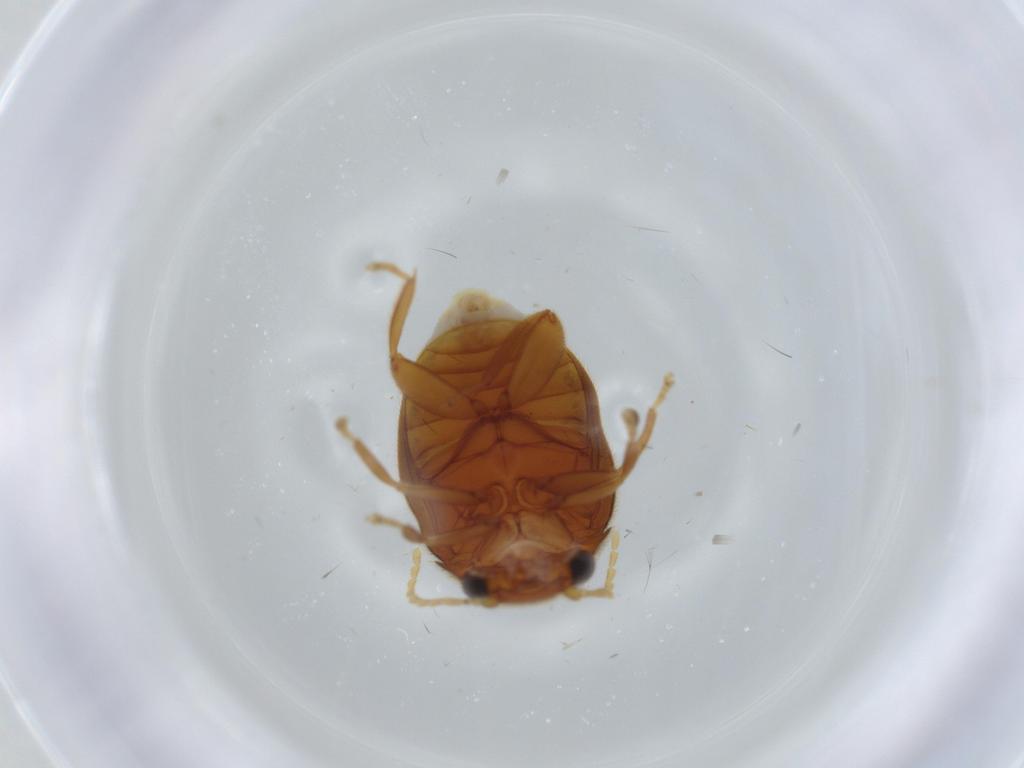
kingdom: Animalia
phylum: Arthropoda
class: Insecta
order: Coleoptera
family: Scirtidae
